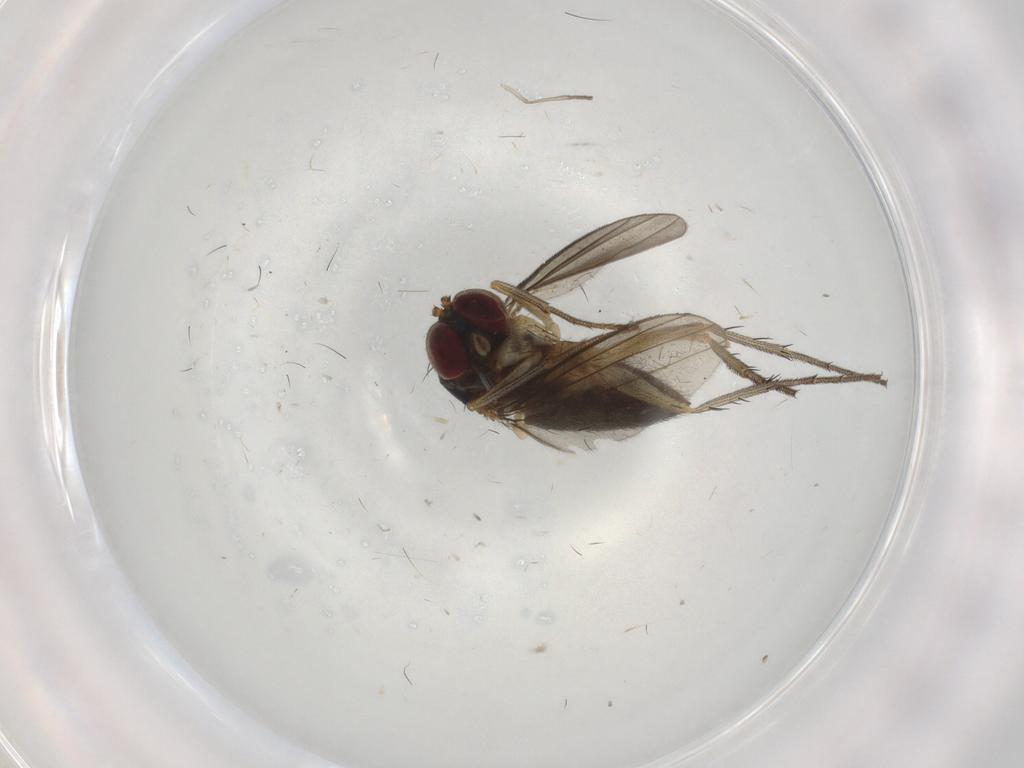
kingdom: Animalia
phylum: Arthropoda
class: Insecta
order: Diptera
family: Dolichopodidae
